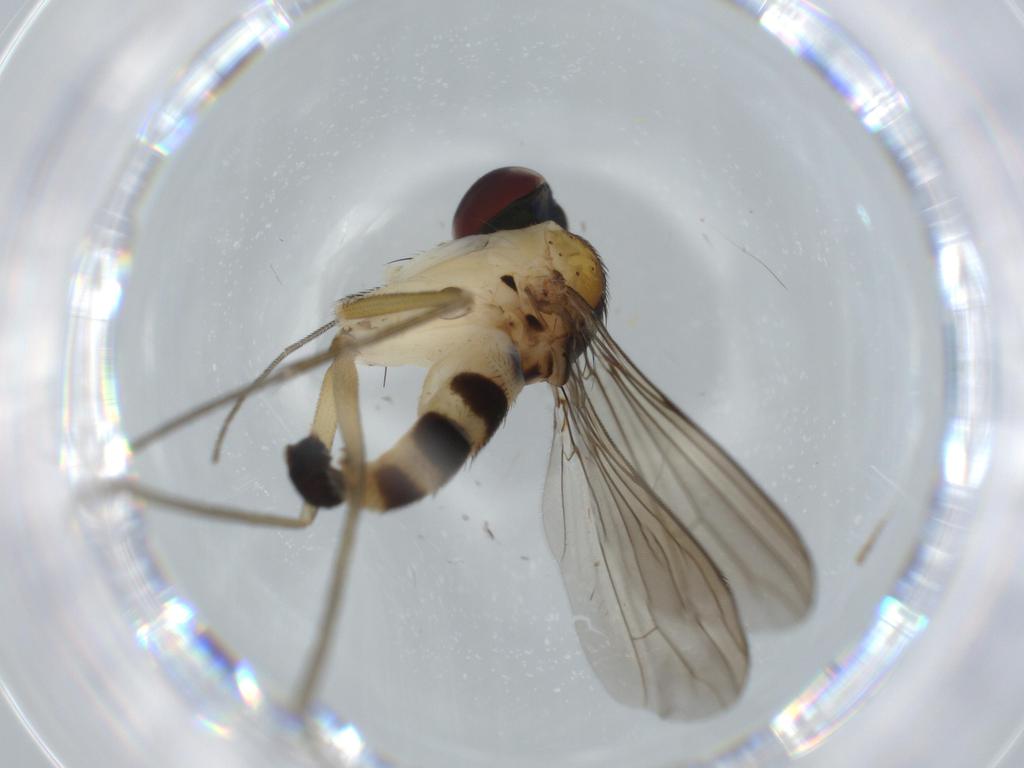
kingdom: Animalia
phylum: Arthropoda
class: Insecta
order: Diptera
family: Dolichopodidae
